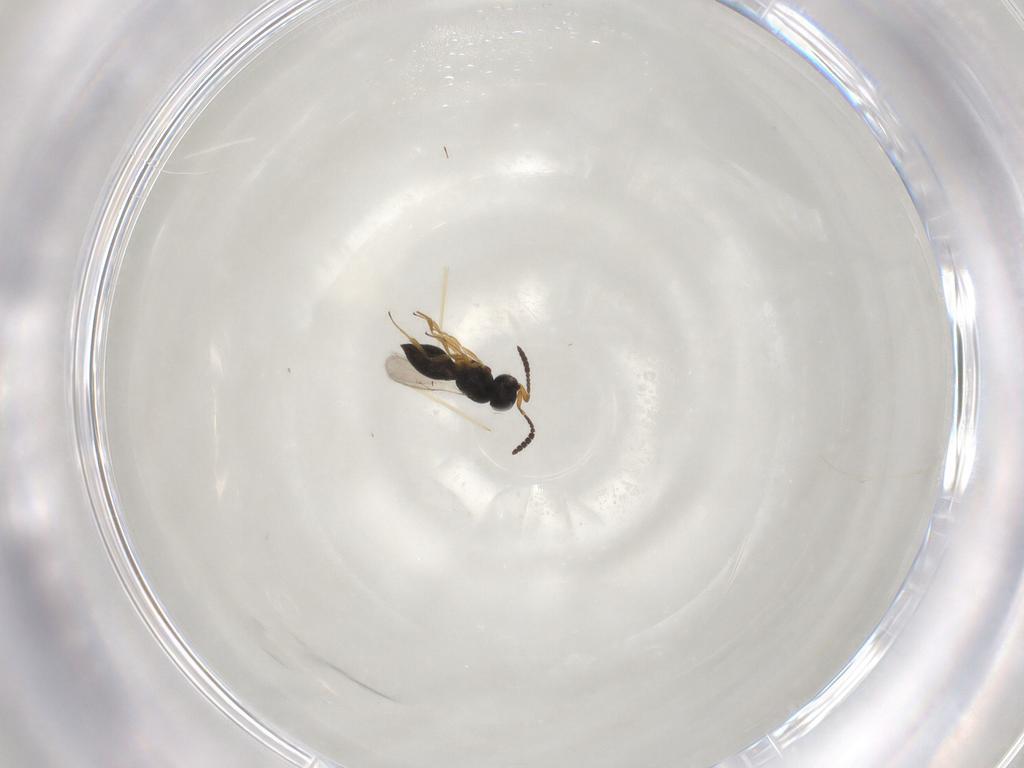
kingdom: Animalia
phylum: Arthropoda
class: Insecta
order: Hymenoptera
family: Scelionidae
